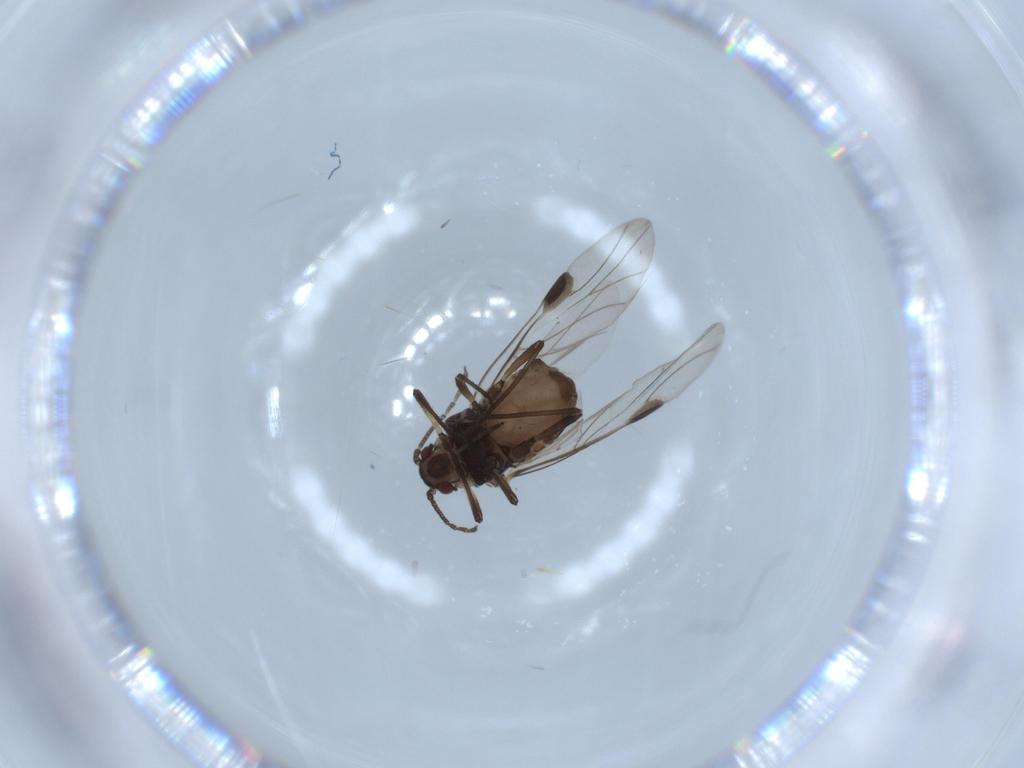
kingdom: Animalia
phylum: Arthropoda
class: Insecta
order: Hemiptera
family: Aphididae
